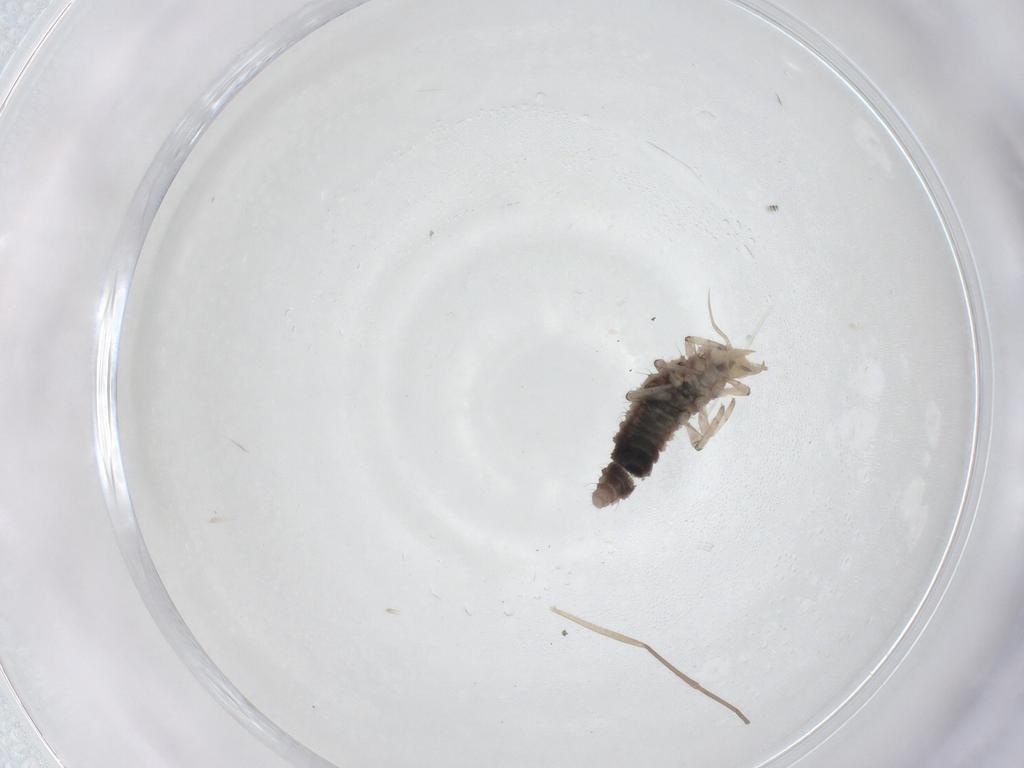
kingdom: Animalia
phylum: Arthropoda
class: Insecta
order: Neuroptera
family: Hemerobiidae
